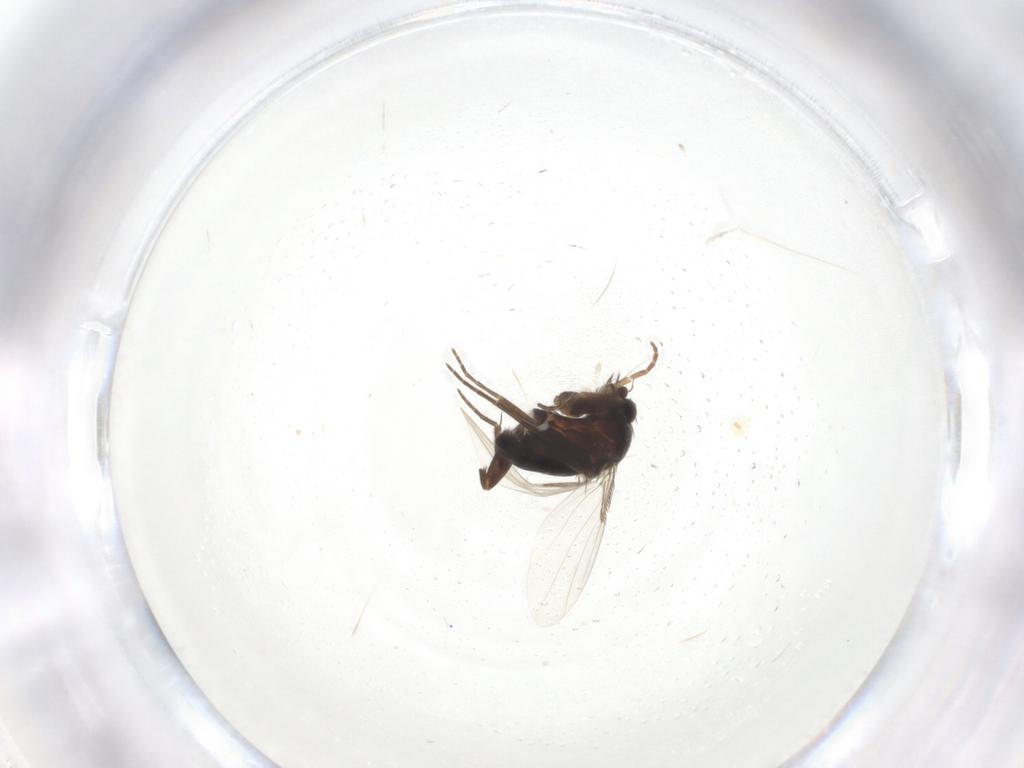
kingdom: Animalia
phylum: Arthropoda
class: Insecta
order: Diptera
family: Phoridae
